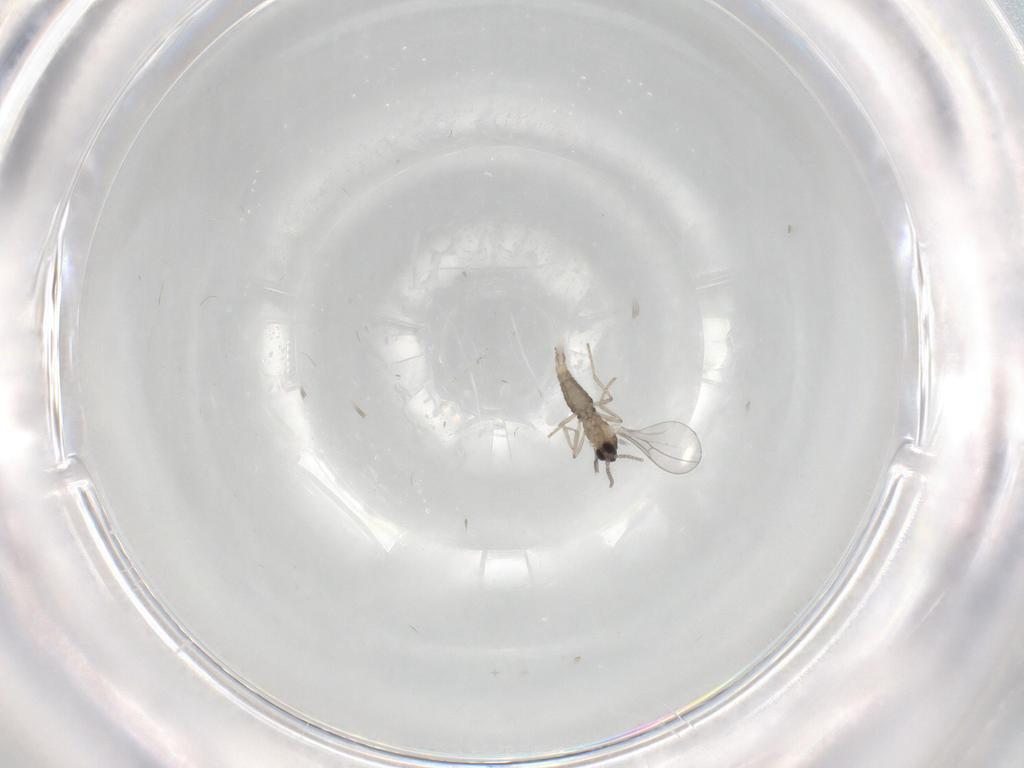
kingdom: Animalia
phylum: Arthropoda
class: Insecta
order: Diptera
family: Cecidomyiidae
